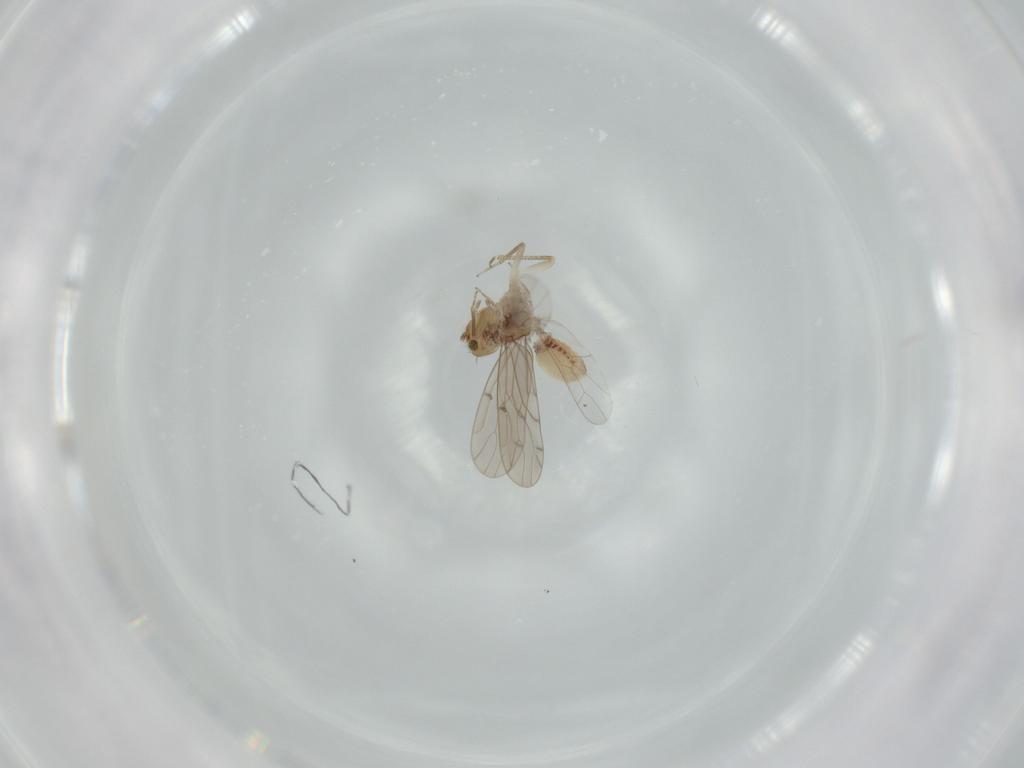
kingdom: Animalia
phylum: Arthropoda
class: Insecta
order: Psocodea
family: Ectopsocidae
